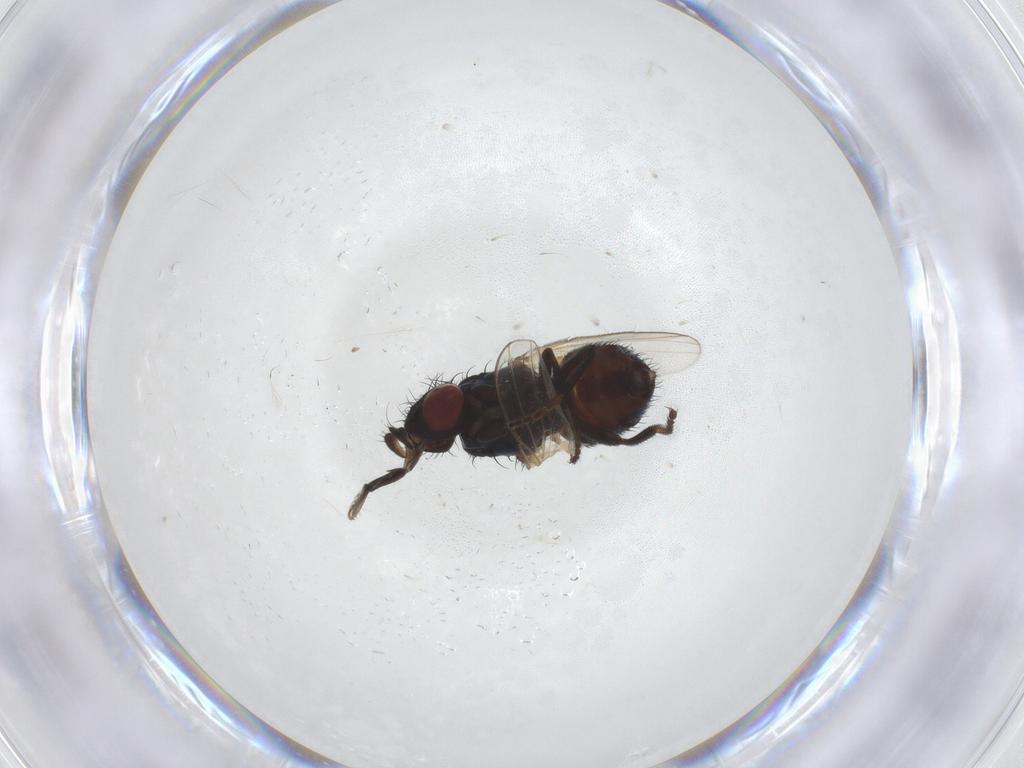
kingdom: Animalia
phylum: Arthropoda
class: Insecta
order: Diptera
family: Milichiidae
